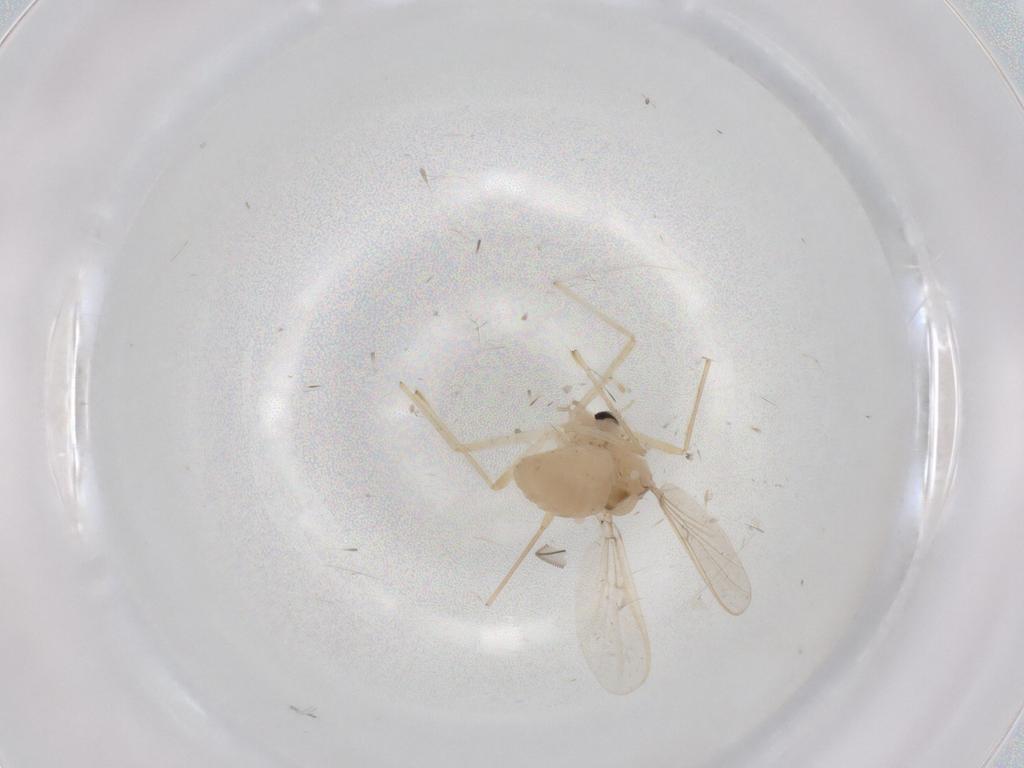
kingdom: Animalia
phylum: Arthropoda
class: Insecta
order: Diptera
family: Chironomidae
